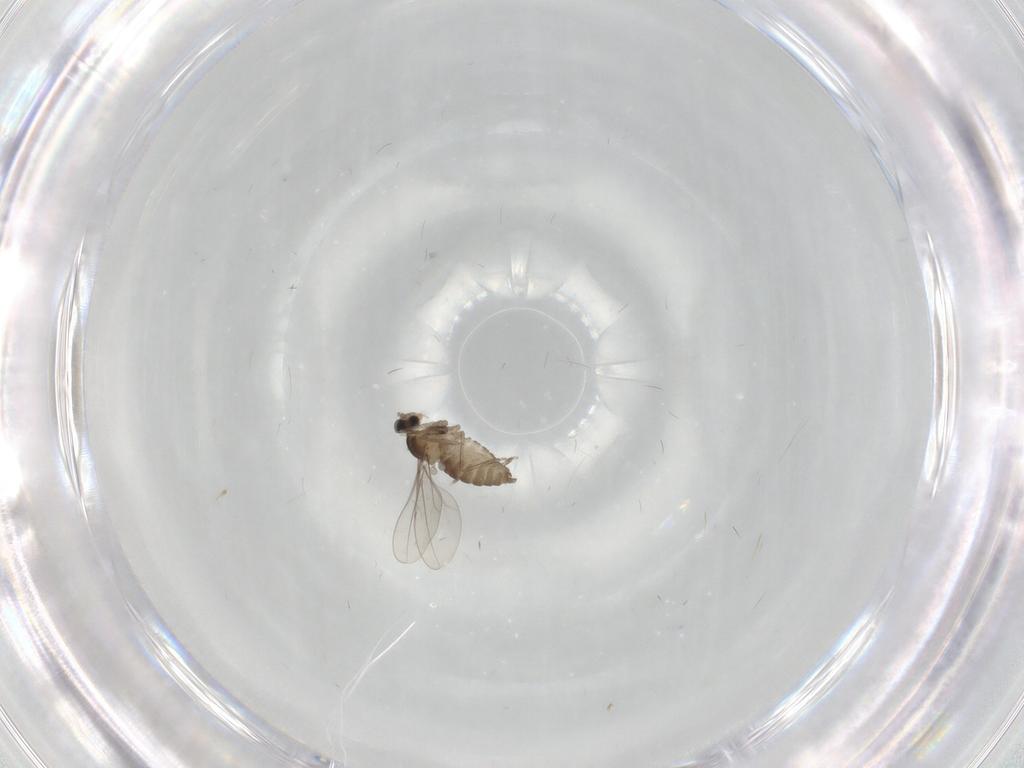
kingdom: Animalia
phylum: Arthropoda
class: Insecta
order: Diptera
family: Cecidomyiidae
